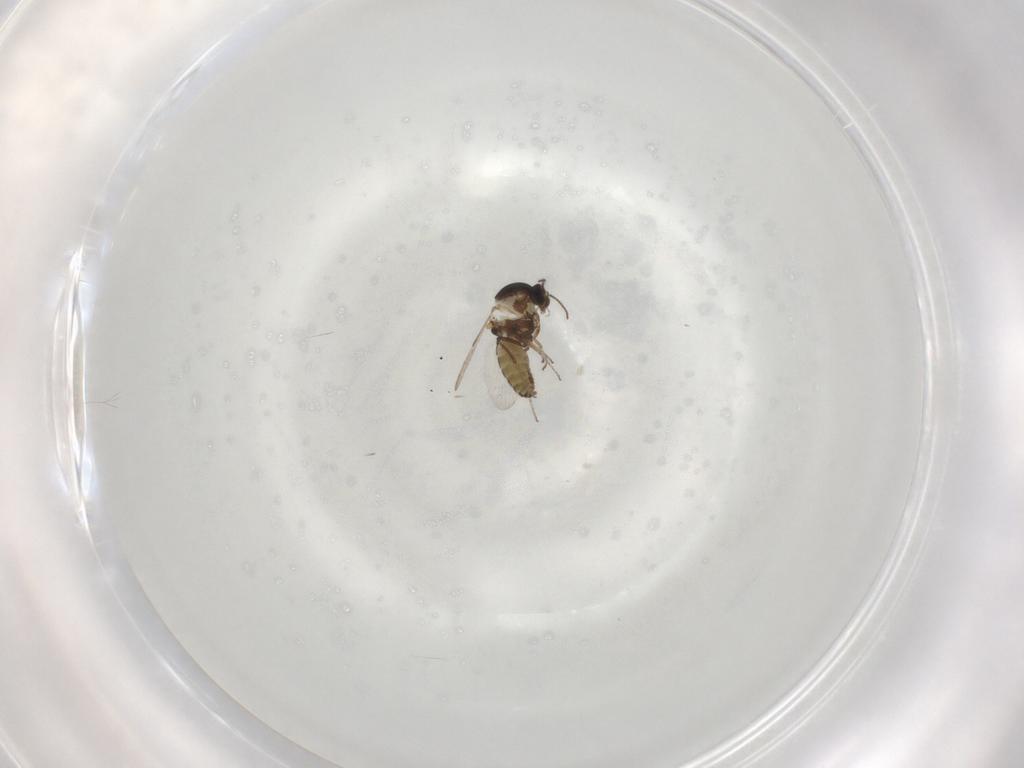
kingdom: Animalia
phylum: Arthropoda
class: Insecta
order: Diptera
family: Ceratopogonidae
